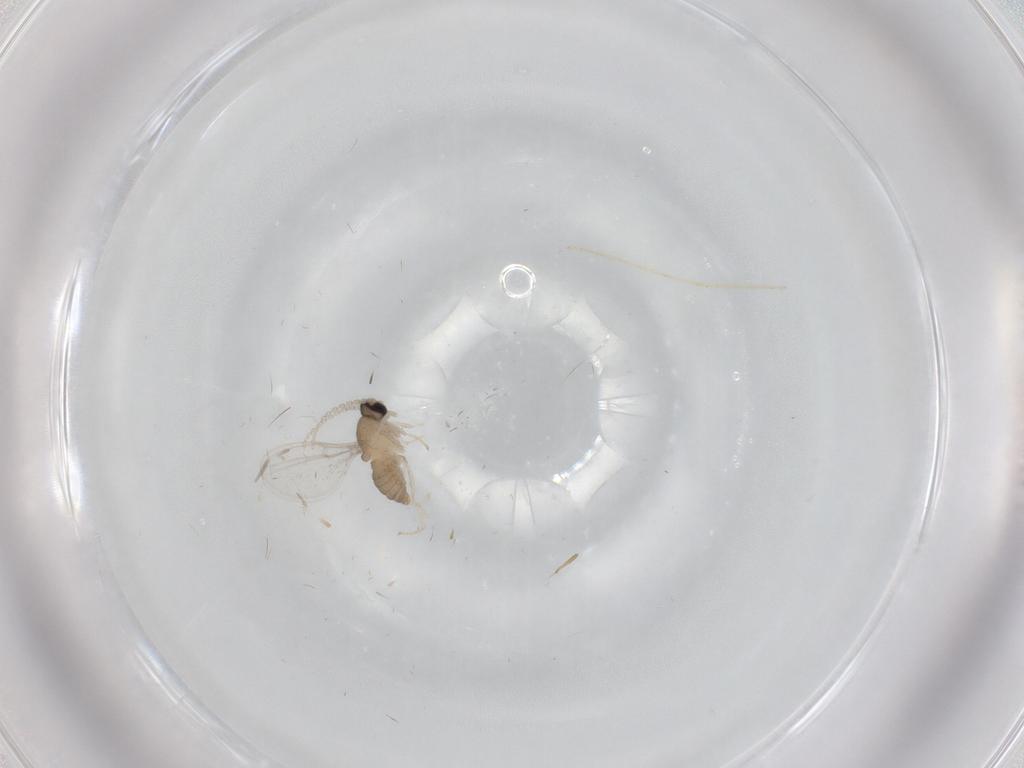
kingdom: Animalia
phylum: Arthropoda
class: Insecta
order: Diptera
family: Cecidomyiidae
